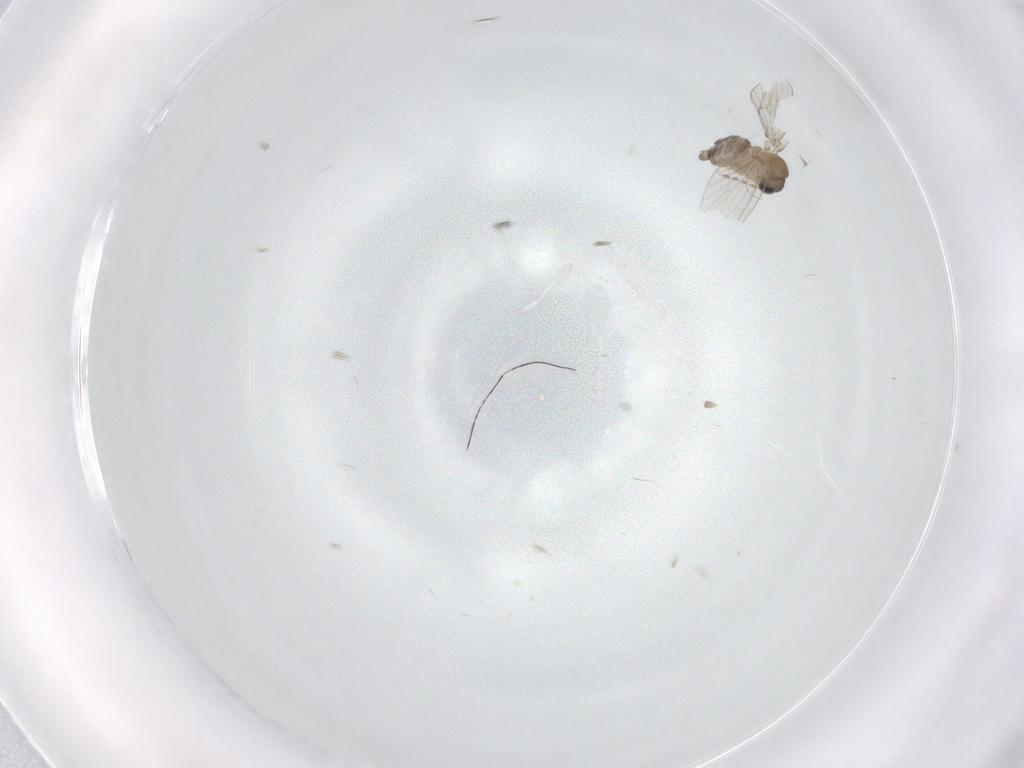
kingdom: Animalia
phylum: Arthropoda
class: Insecta
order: Diptera
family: Psychodidae
